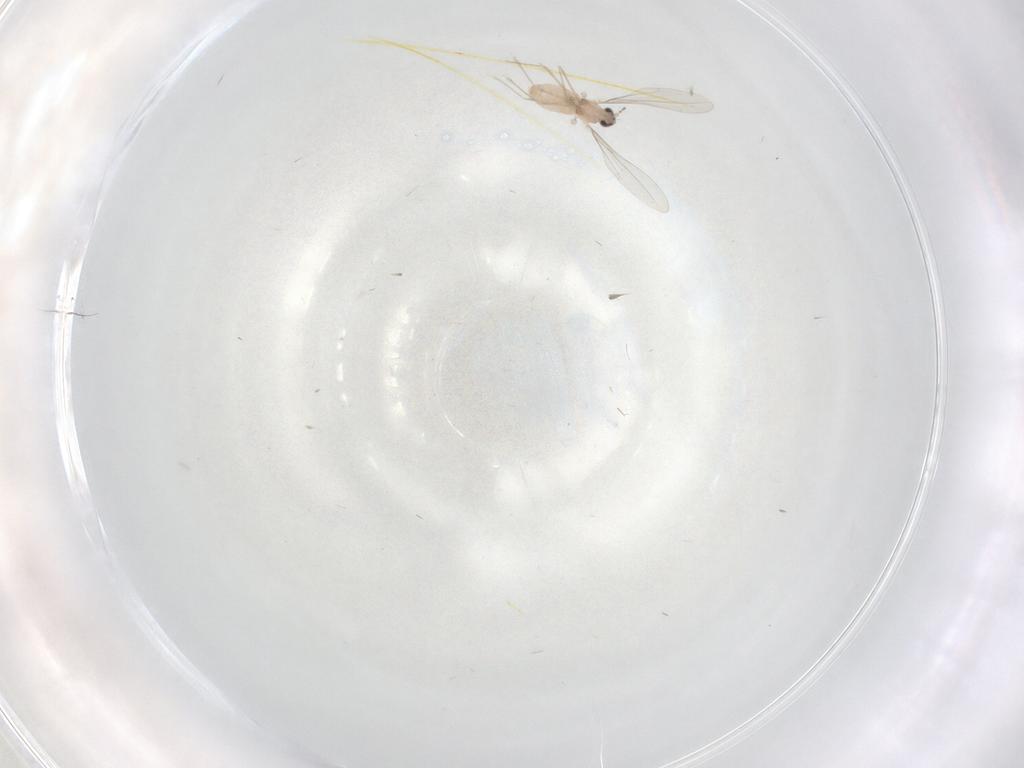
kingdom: Animalia
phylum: Arthropoda
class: Insecta
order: Diptera
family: Cecidomyiidae
